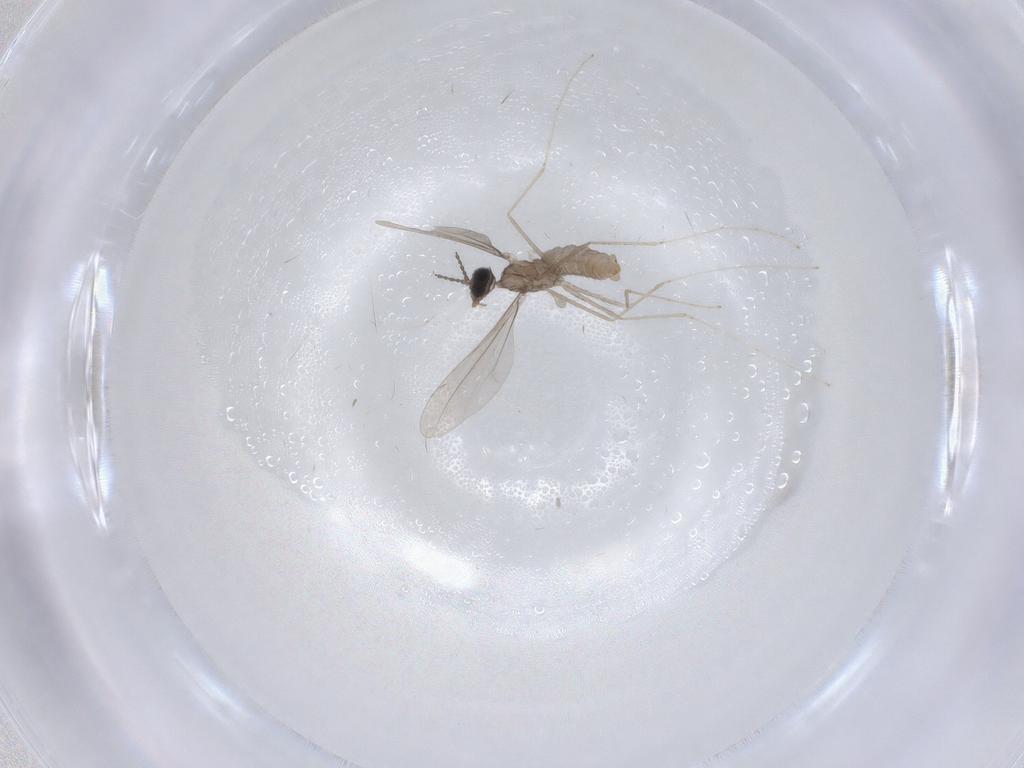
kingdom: Animalia
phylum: Arthropoda
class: Insecta
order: Diptera
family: Cecidomyiidae
